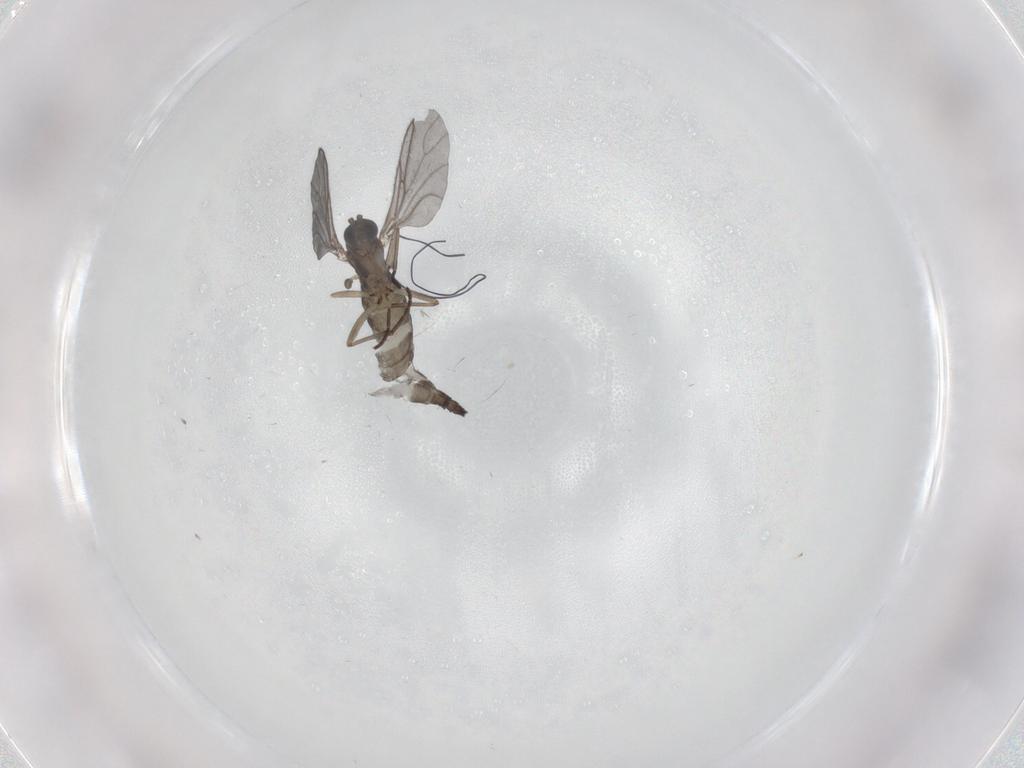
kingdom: Animalia
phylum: Arthropoda
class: Insecta
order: Diptera
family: Sciaridae
